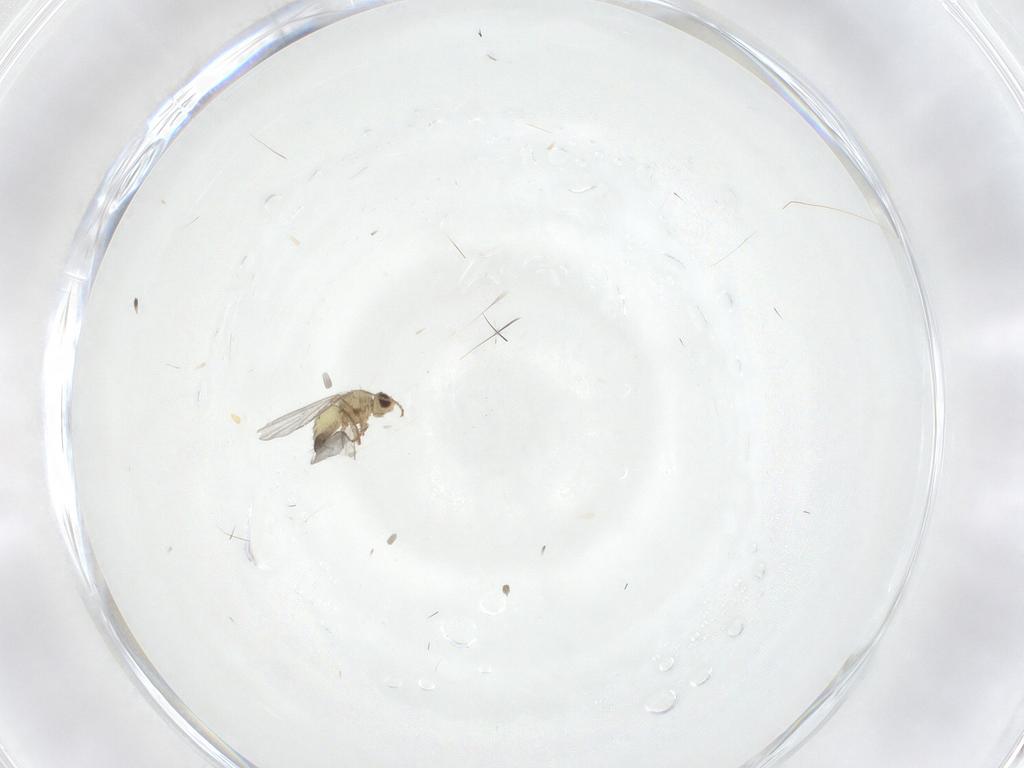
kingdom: Animalia
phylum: Arthropoda
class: Insecta
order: Diptera
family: Agromyzidae
